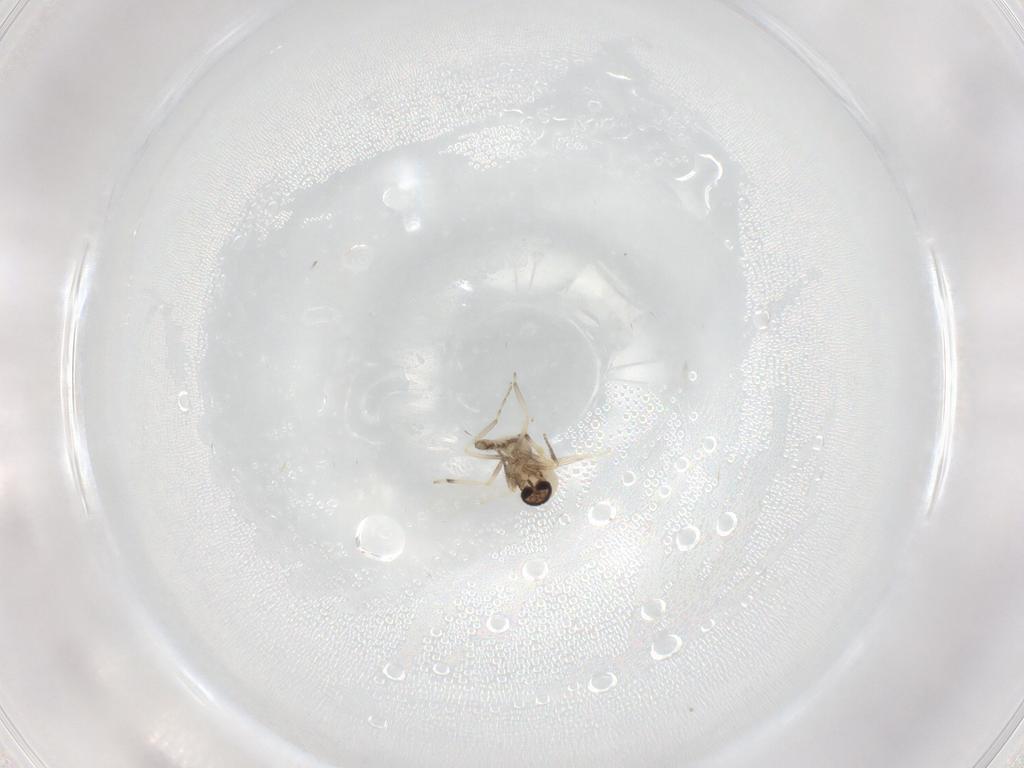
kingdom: Animalia
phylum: Arthropoda
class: Insecta
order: Diptera
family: Ceratopogonidae
